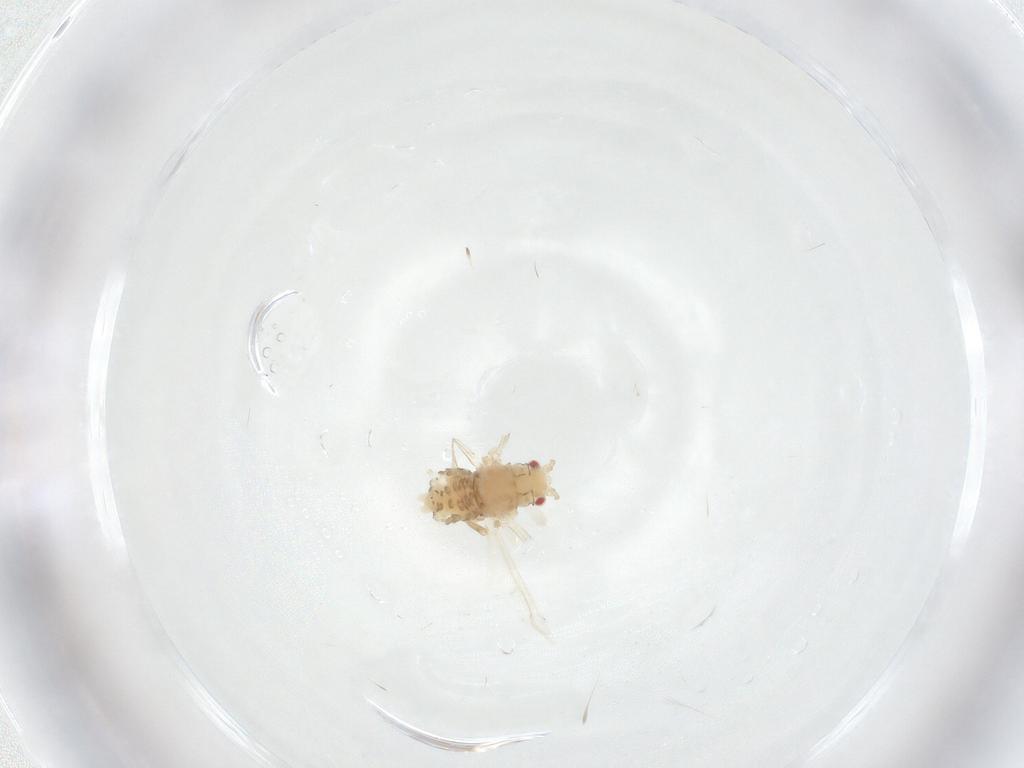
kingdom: Animalia
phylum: Arthropoda
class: Insecta
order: Hemiptera
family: Aphididae
